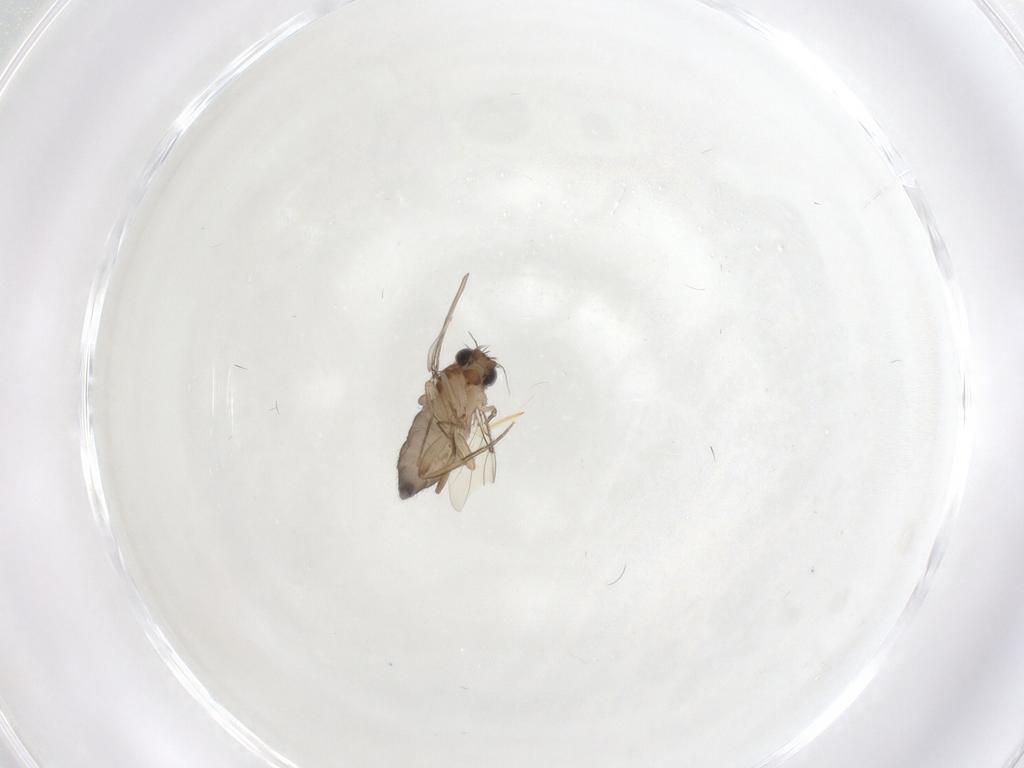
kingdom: Animalia
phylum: Arthropoda
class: Insecta
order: Diptera
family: Phoridae
